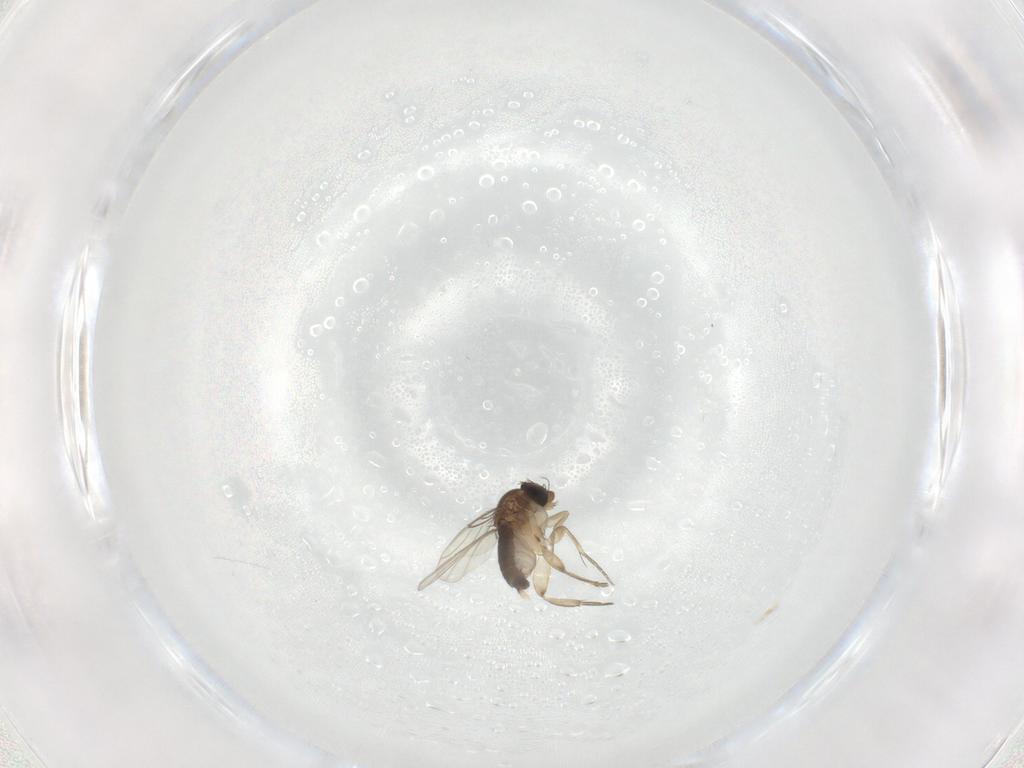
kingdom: Animalia
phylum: Arthropoda
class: Insecta
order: Diptera
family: Phoridae
